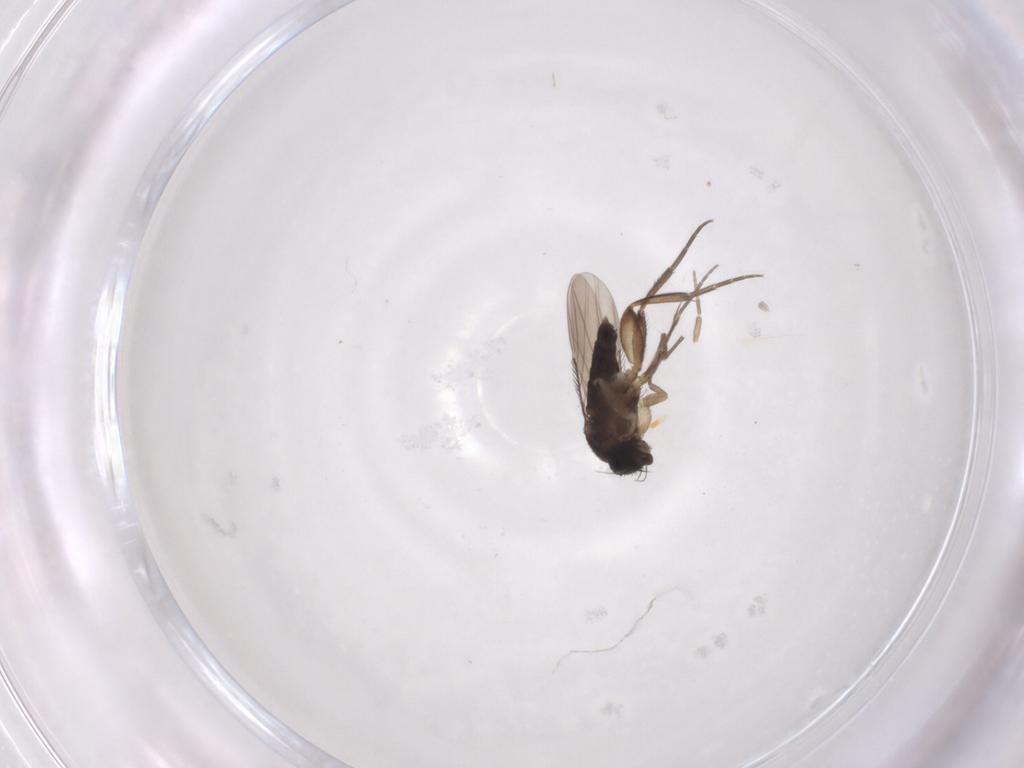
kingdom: Animalia
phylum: Arthropoda
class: Insecta
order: Diptera
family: Phoridae
